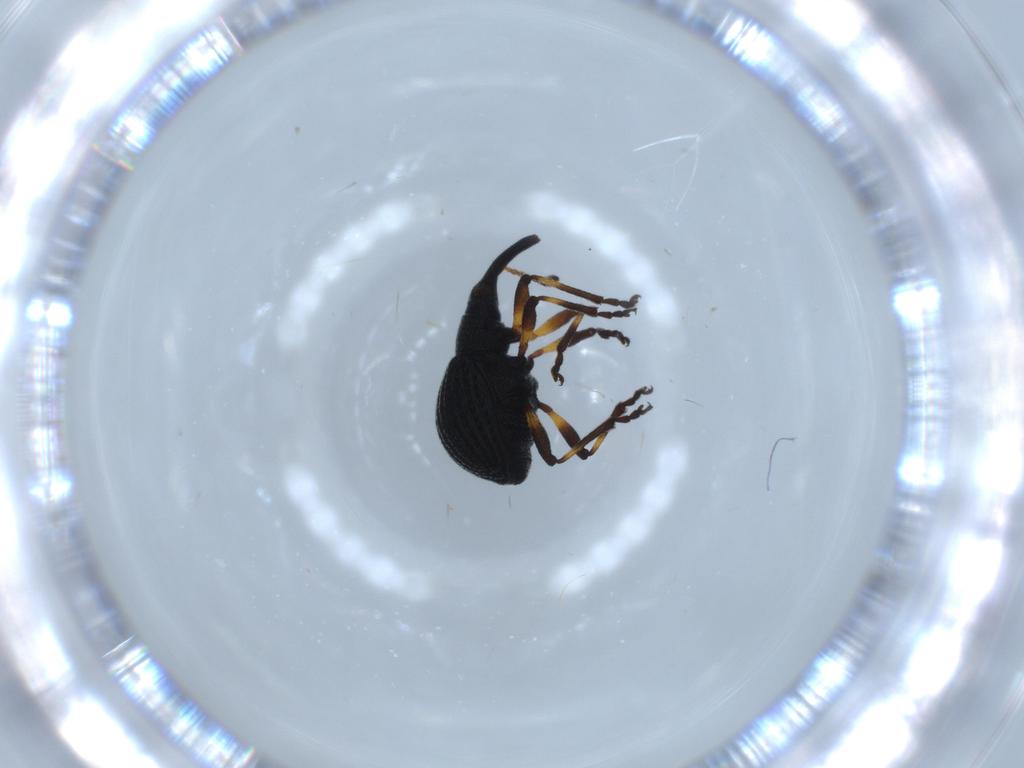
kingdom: Animalia
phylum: Arthropoda
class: Insecta
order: Coleoptera
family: Brentidae
